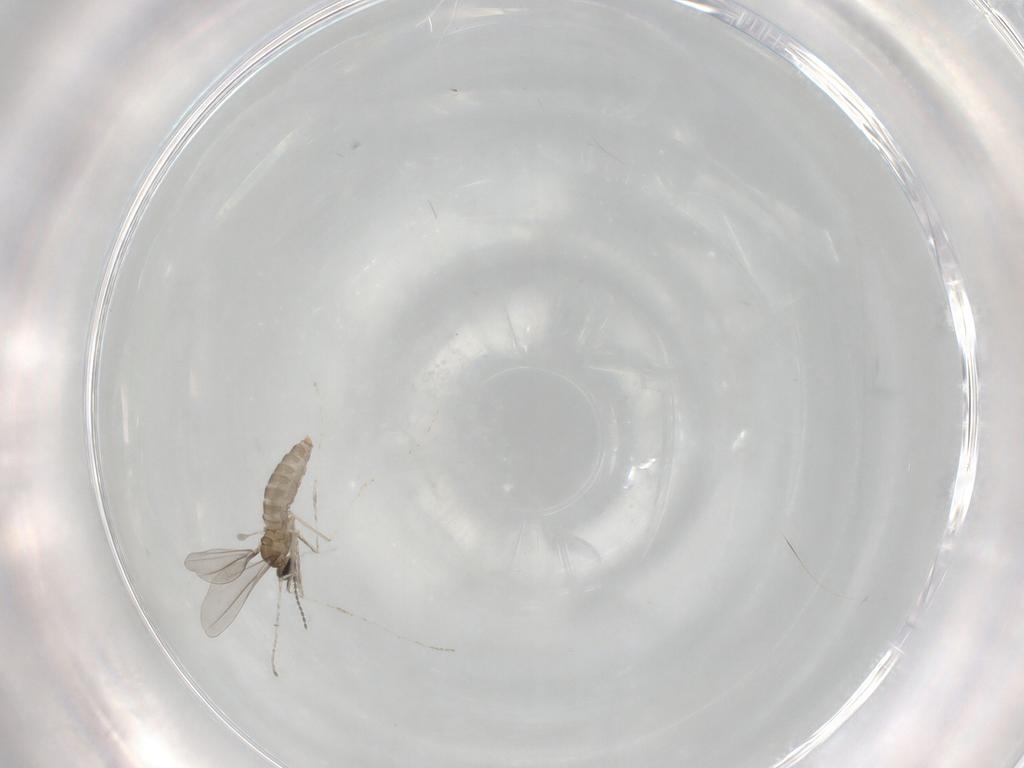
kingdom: Animalia
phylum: Arthropoda
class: Insecta
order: Diptera
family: Cecidomyiidae
